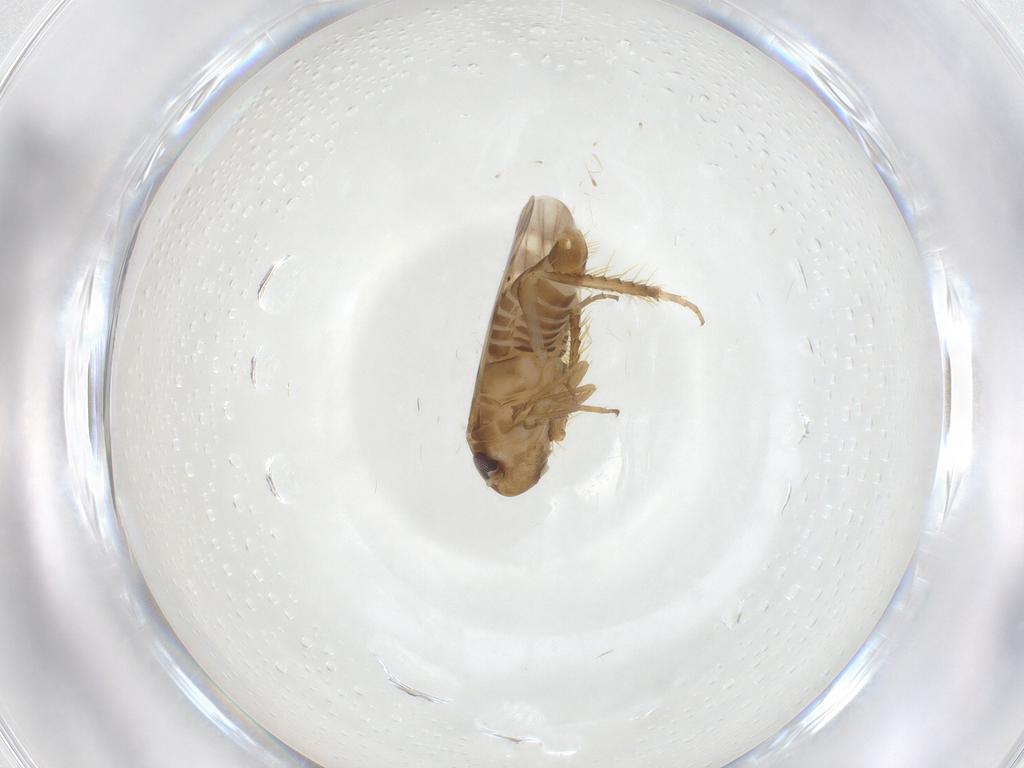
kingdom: Animalia
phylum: Arthropoda
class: Insecta
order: Hemiptera
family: Cicadellidae
